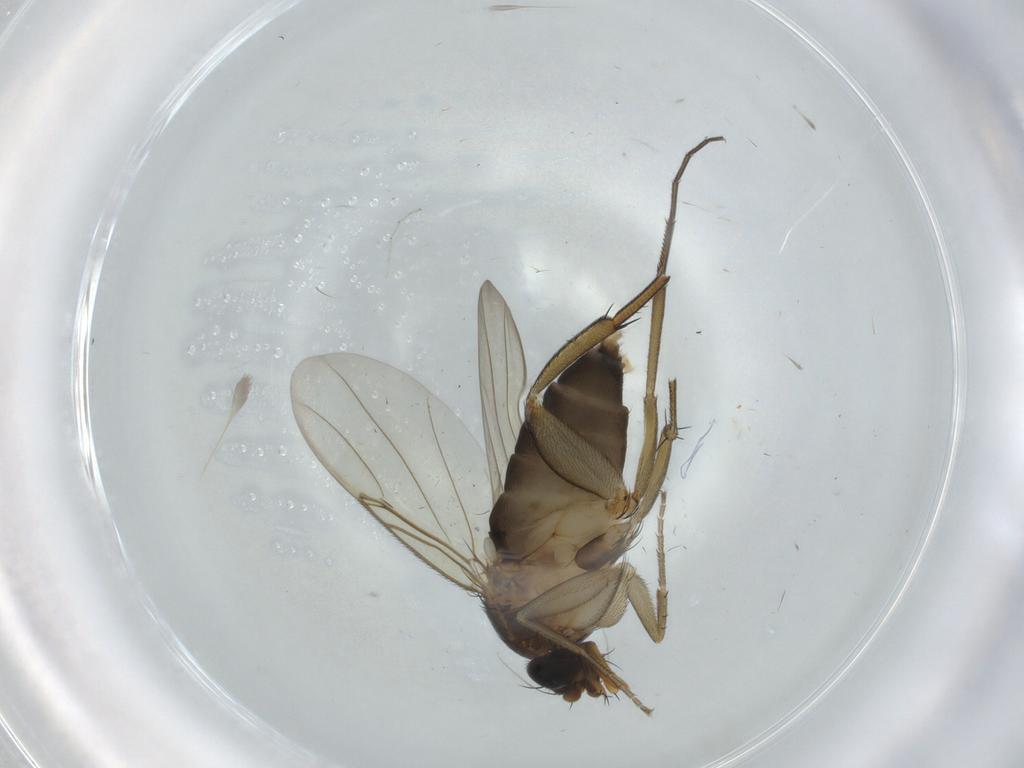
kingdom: Animalia
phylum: Arthropoda
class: Insecta
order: Diptera
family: Cecidomyiidae
